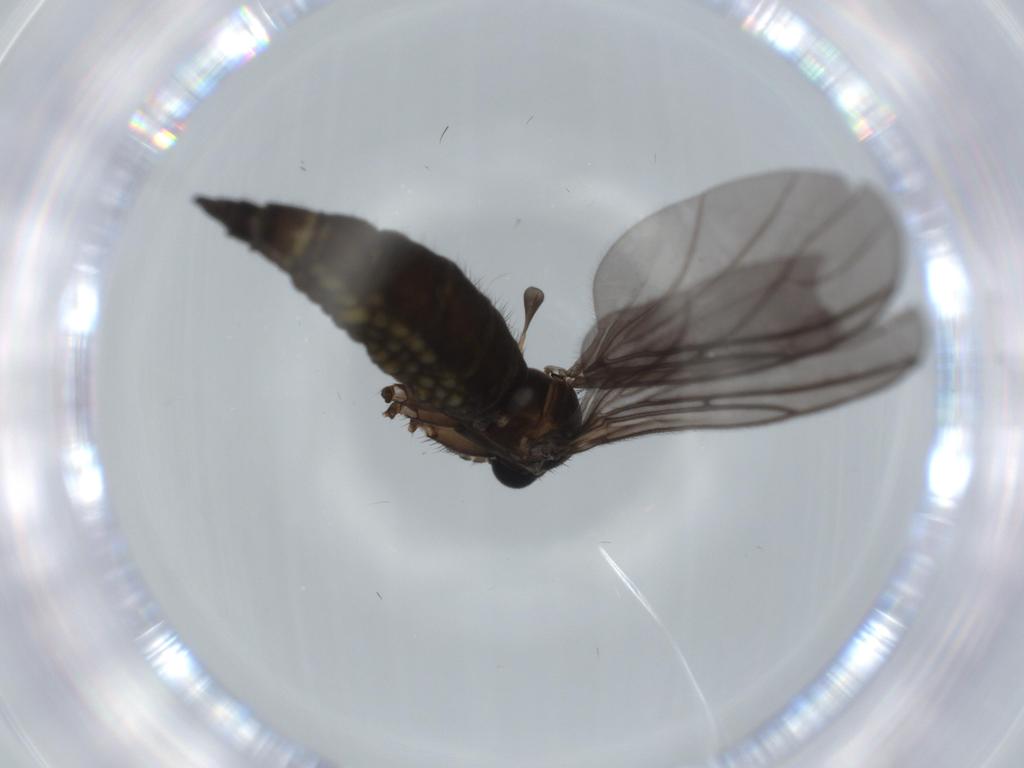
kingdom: Animalia
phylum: Arthropoda
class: Insecta
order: Diptera
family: Sciaridae
